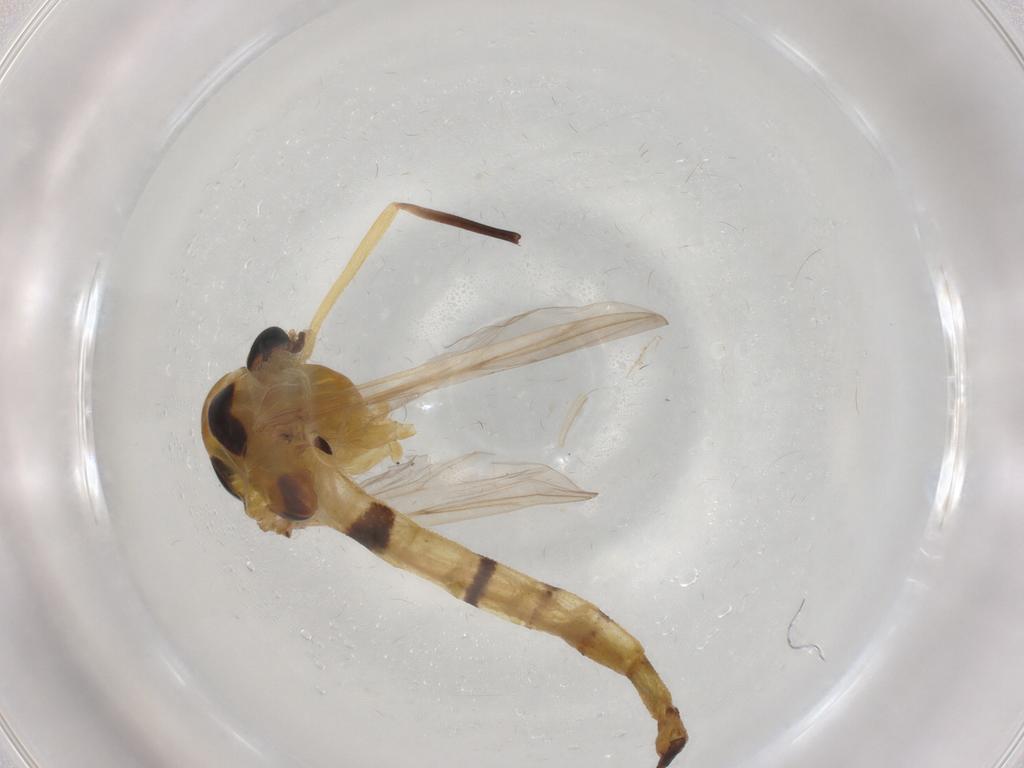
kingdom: Animalia
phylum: Arthropoda
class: Insecta
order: Diptera
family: Chironomidae
